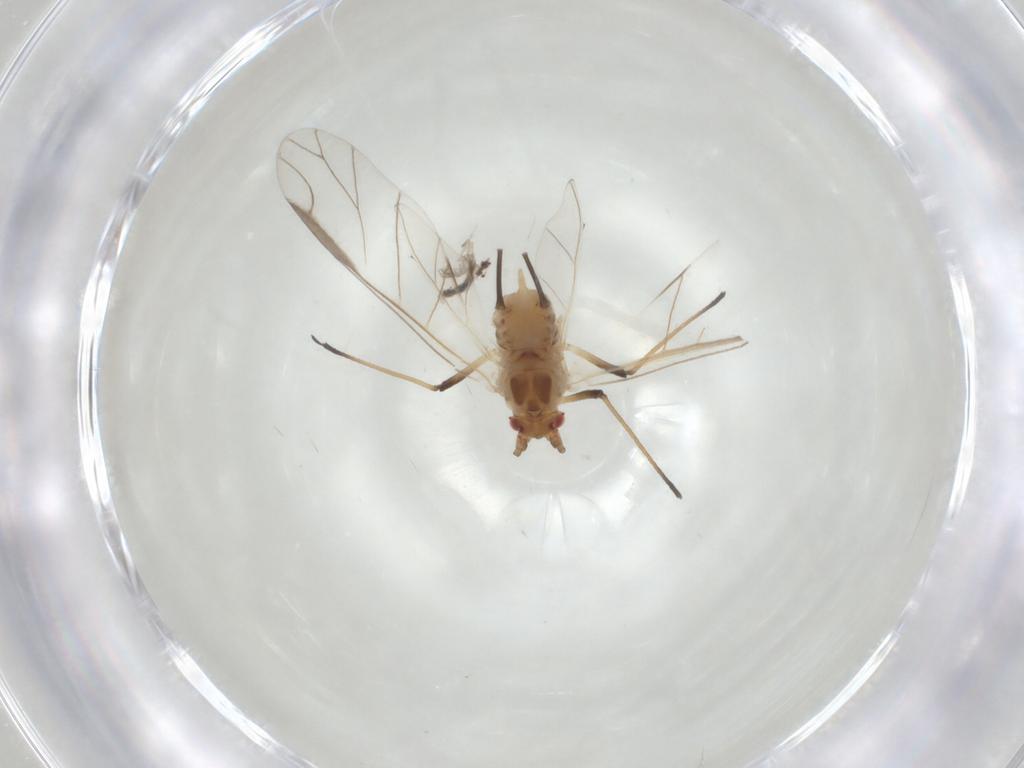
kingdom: Animalia
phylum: Arthropoda
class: Insecta
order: Hemiptera
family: Aphididae
